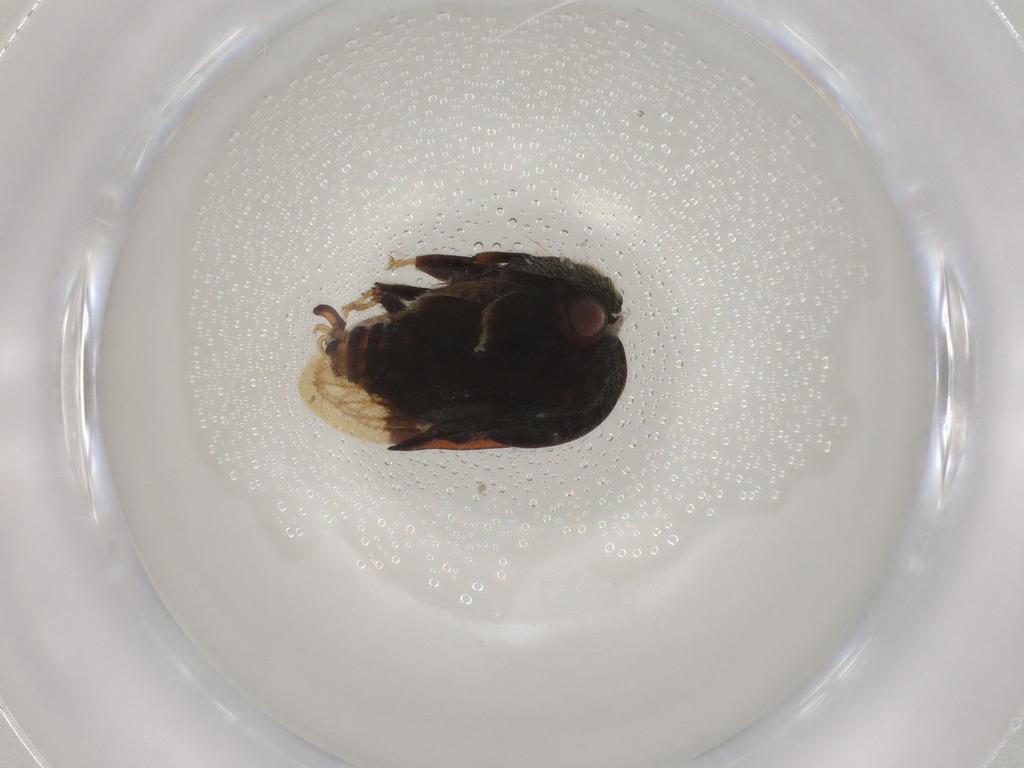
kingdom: Animalia
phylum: Arthropoda
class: Insecta
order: Hemiptera
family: Membracidae
